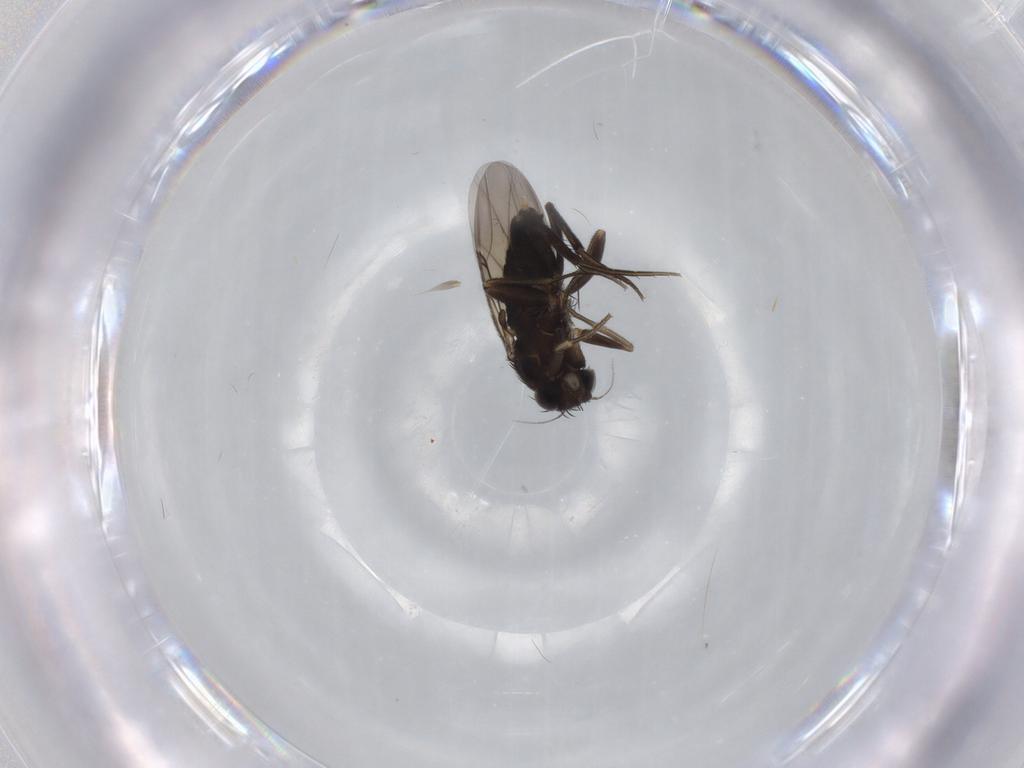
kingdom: Animalia
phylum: Arthropoda
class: Insecta
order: Diptera
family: Phoridae
